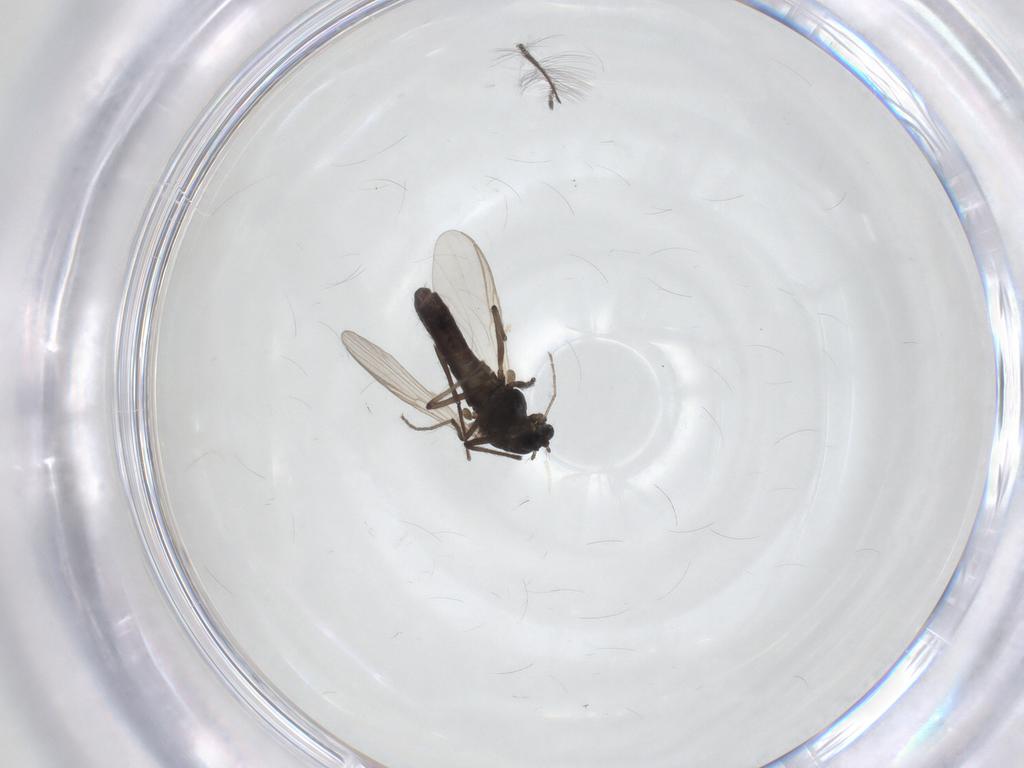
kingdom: Animalia
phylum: Arthropoda
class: Insecta
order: Diptera
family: Chironomidae
